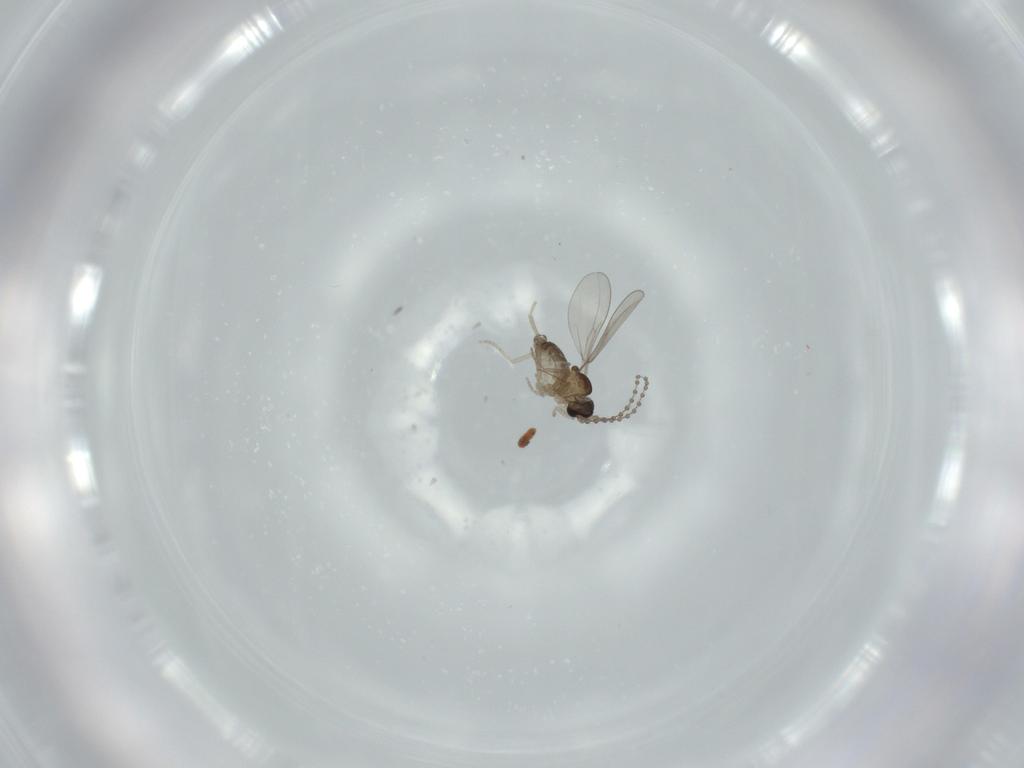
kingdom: Animalia
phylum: Arthropoda
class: Insecta
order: Diptera
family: Cecidomyiidae
